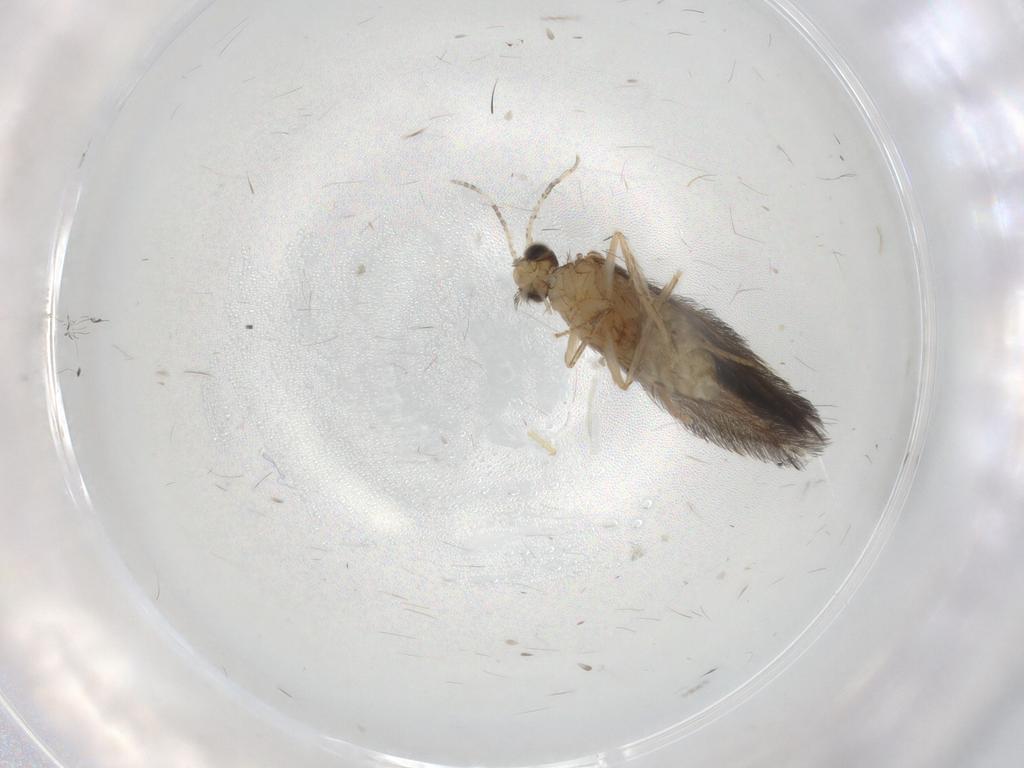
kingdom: Animalia
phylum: Arthropoda
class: Insecta
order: Trichoptera
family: Hydroptilidae
